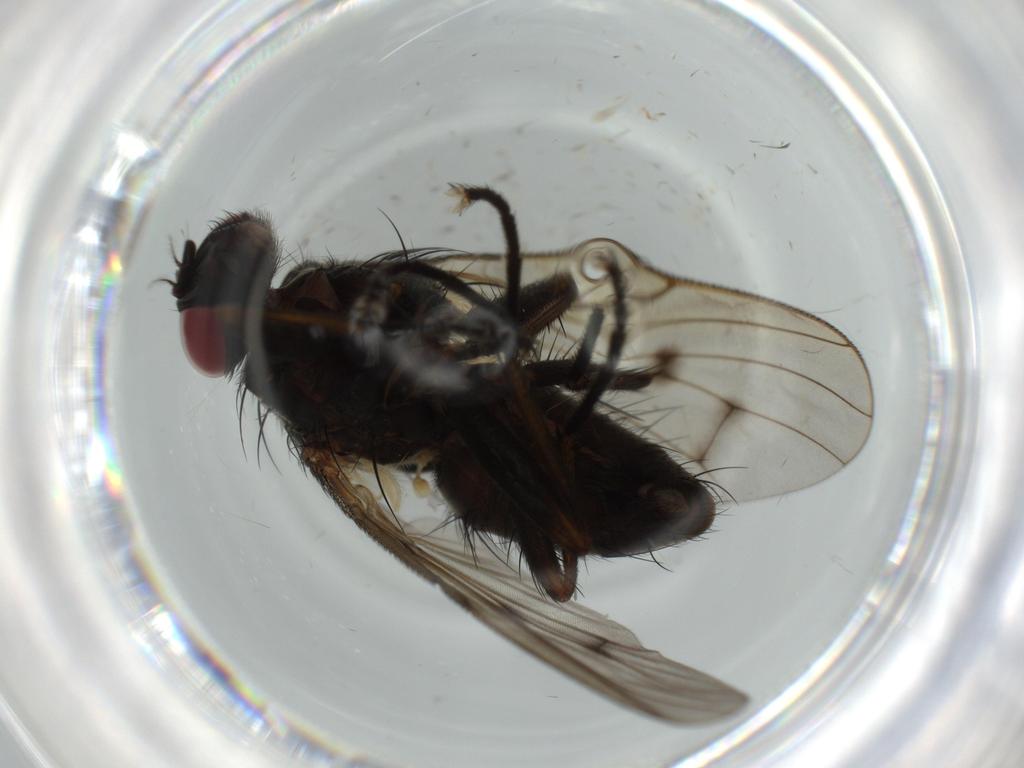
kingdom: Animalia
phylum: Arthropoda
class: Insecta
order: Diptera
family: Muscidae
